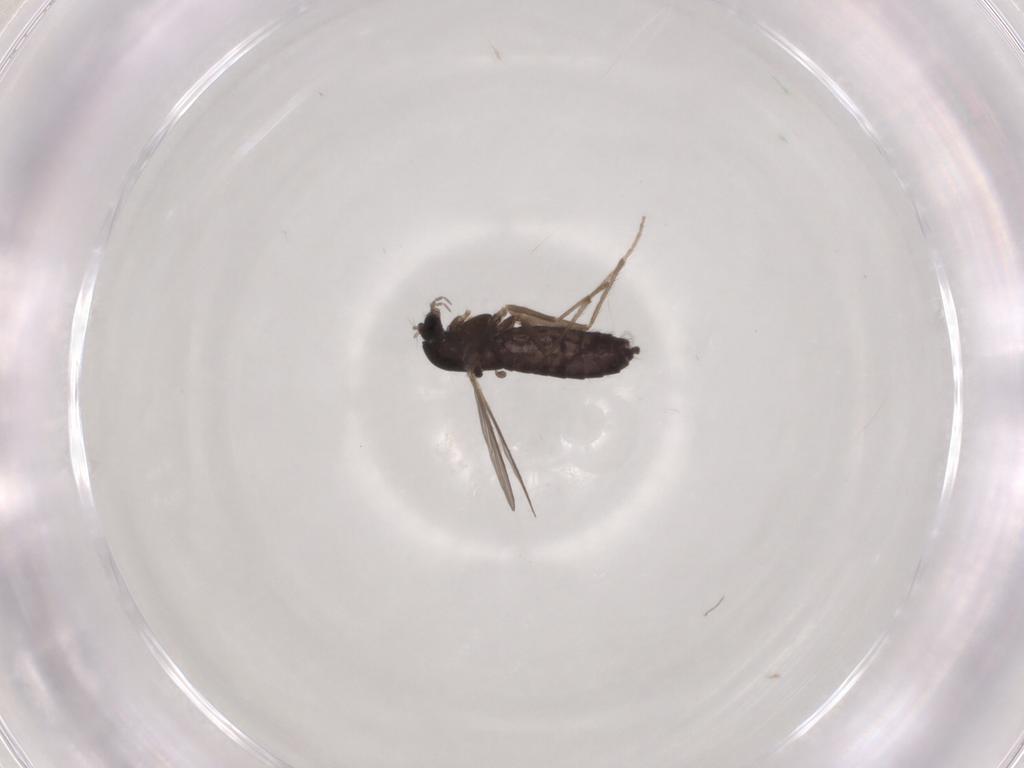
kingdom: Animalia
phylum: Arthropoda
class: Insecta
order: Diptera
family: Chironomidae
